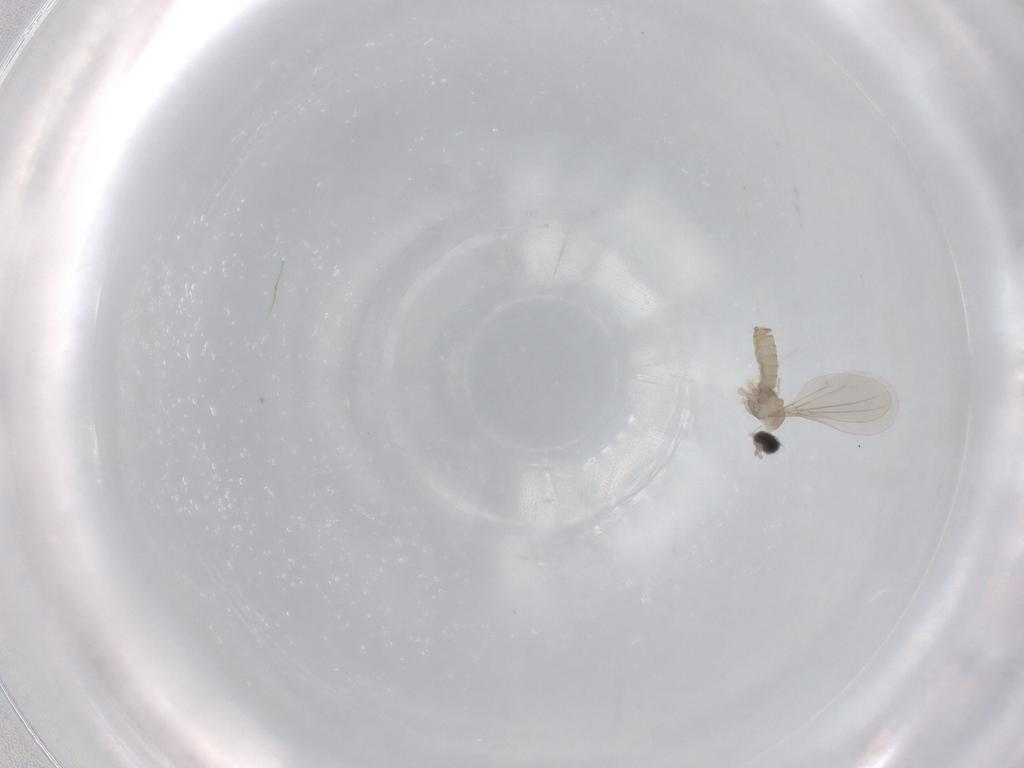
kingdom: Animalia
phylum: Arthropoda
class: Insecta
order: Diptera
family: Cecidomyiidae
